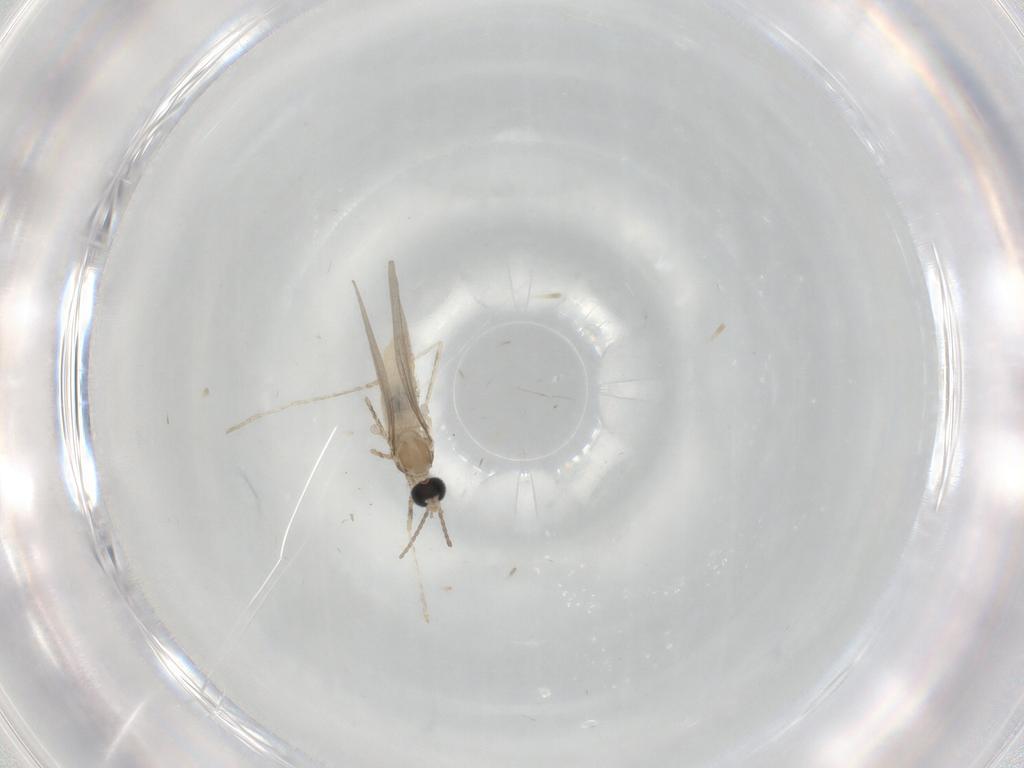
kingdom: Animalia
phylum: Arthropoda
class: Insecta
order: Diptera
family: Cecidomyiidae
